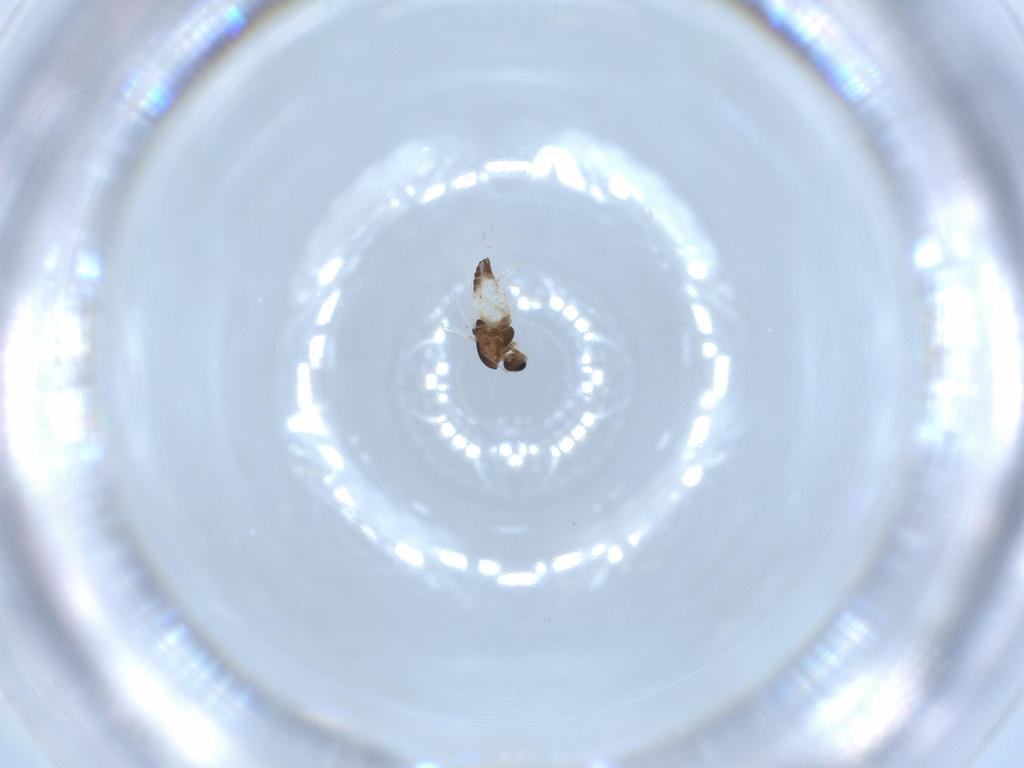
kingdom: Animalia
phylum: Arthropoda
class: Insecta
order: Diptera
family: Chironomidae
